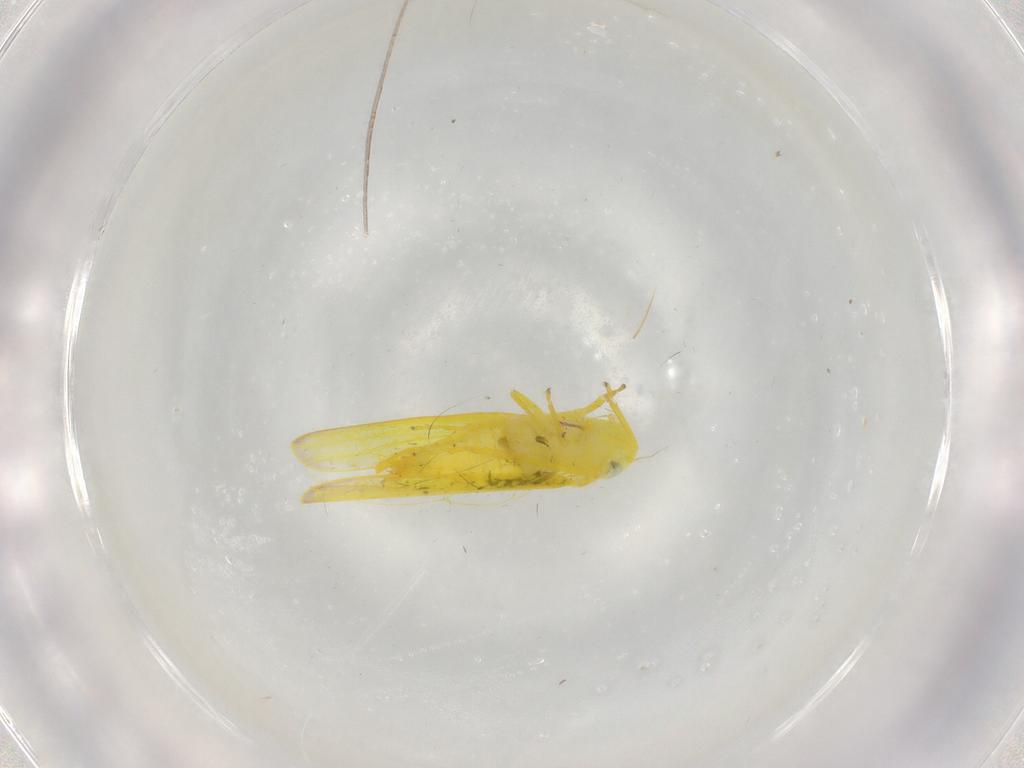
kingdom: Animalia
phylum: Arthropoda
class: Insecta
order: Hemiptera
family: Cicadellidae
